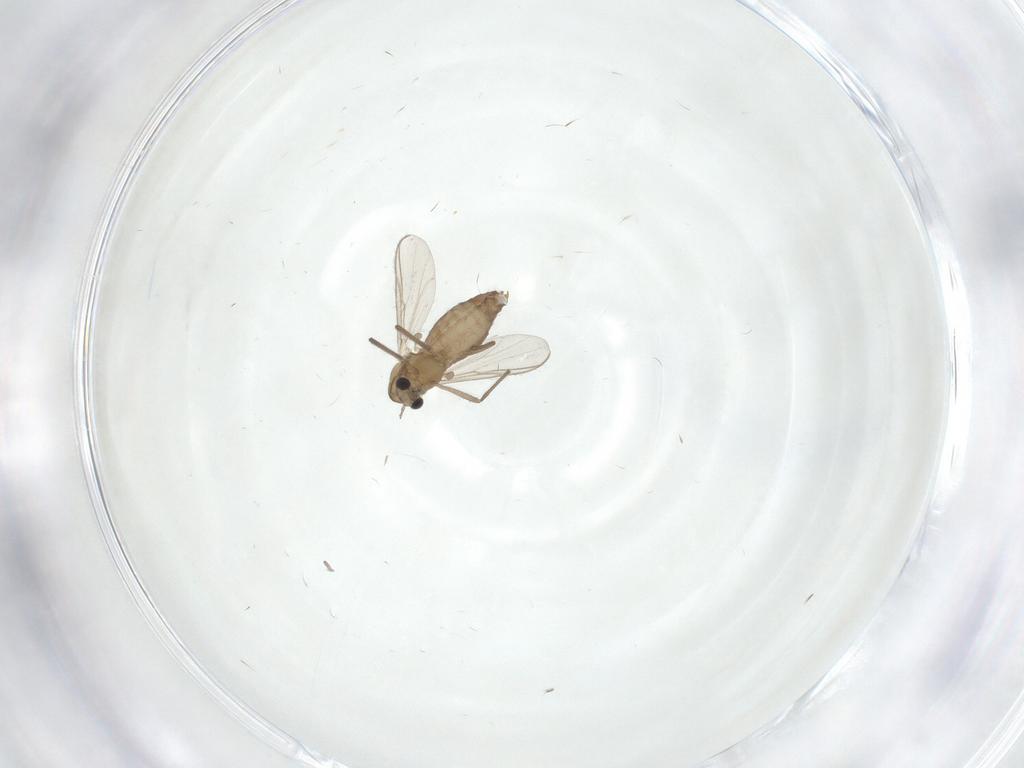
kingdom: Animalia
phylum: Arthropoda
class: Insecta
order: Diptera
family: Chironomidae
